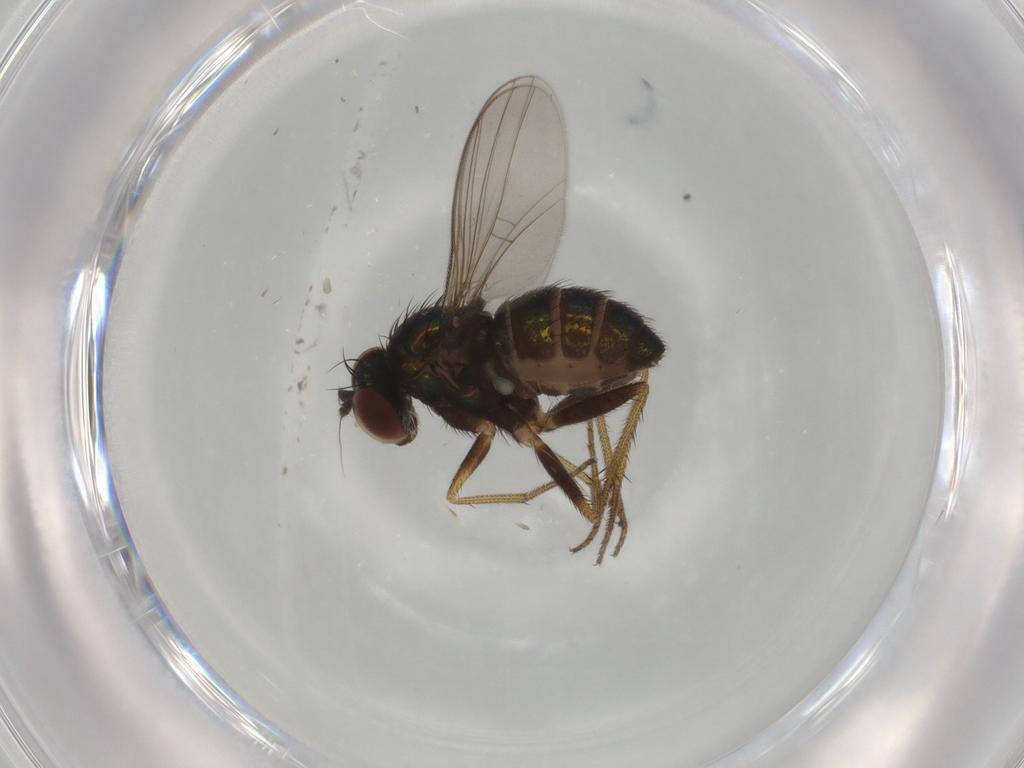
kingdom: Animalia
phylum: Arthropoda
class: Insecta
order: Diptera
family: Dolichopodidae
